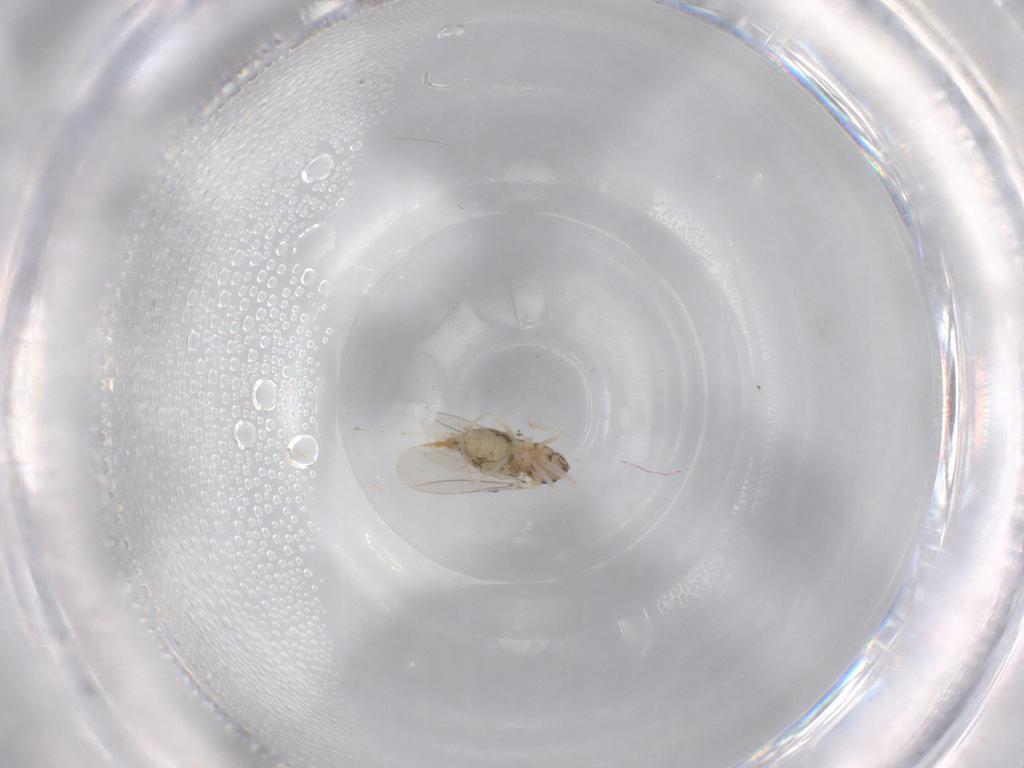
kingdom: Animalia
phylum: Arthropoda
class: Insecta
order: Diptera
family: Cecidomyiidae
